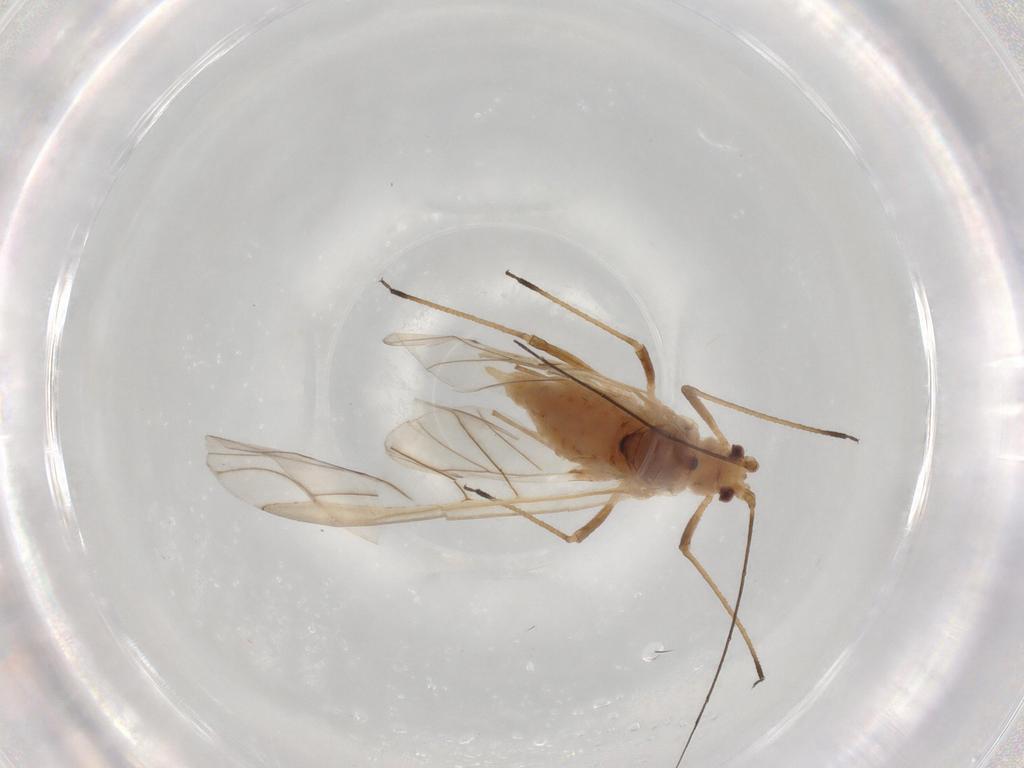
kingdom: Animalia
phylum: Arthropoda
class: Insecta
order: Hemiptera
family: Aphididae
